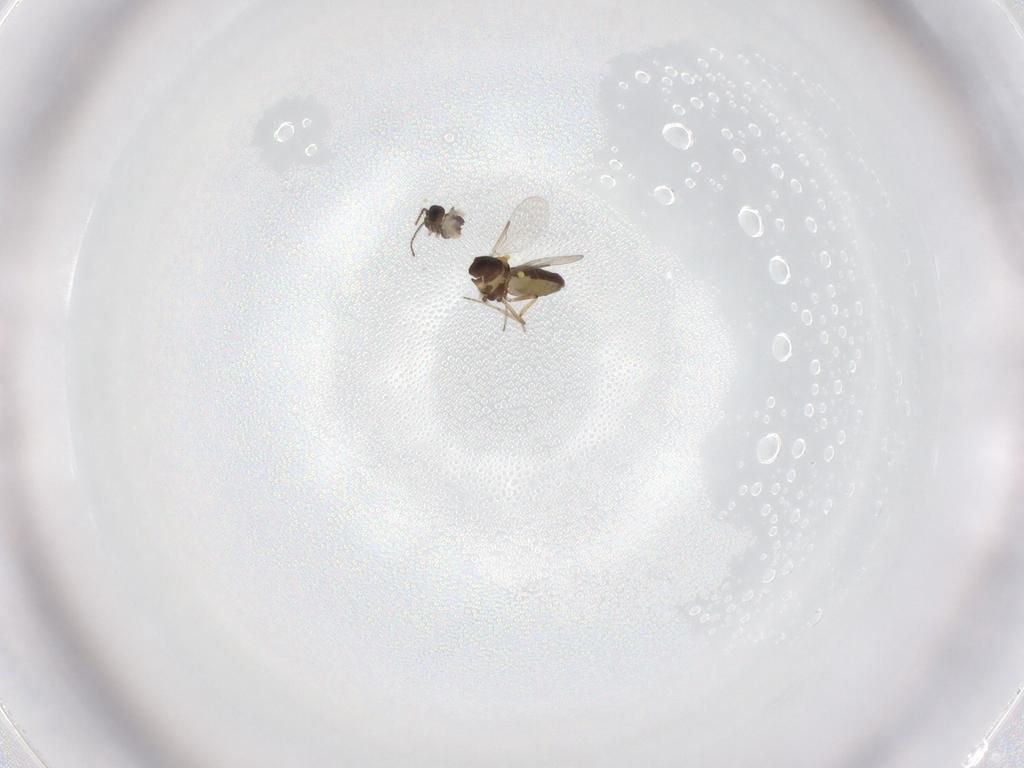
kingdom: Animalia
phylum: Arthropoda
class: Insecta
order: Diptera
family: Ceratopogonidae
